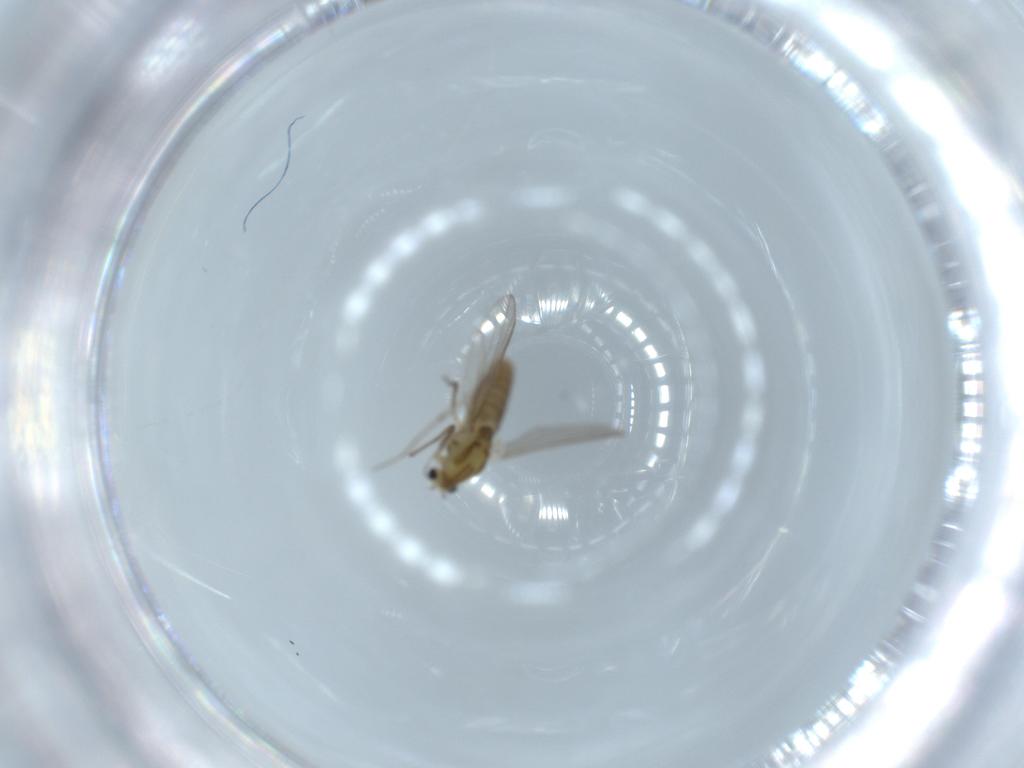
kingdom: Animalia
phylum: Arthropoda
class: Insecta
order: Diptera
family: Chironomidae
